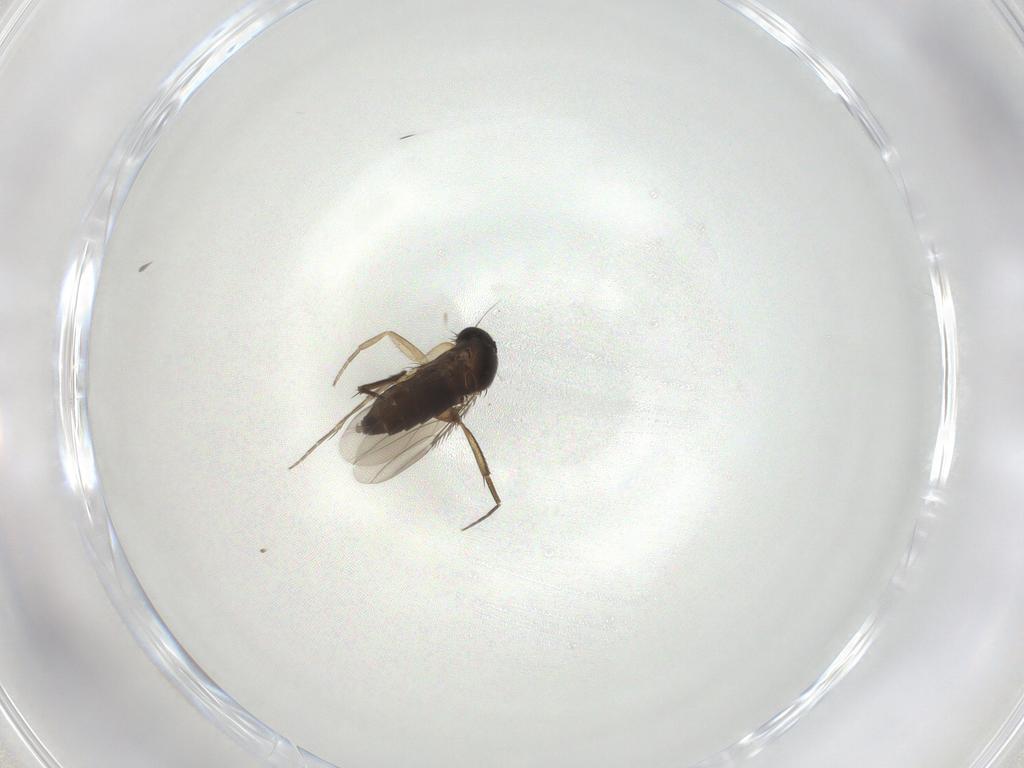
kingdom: Animalia
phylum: Arthropoda
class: Insecta
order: Diptera
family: Phoridae
